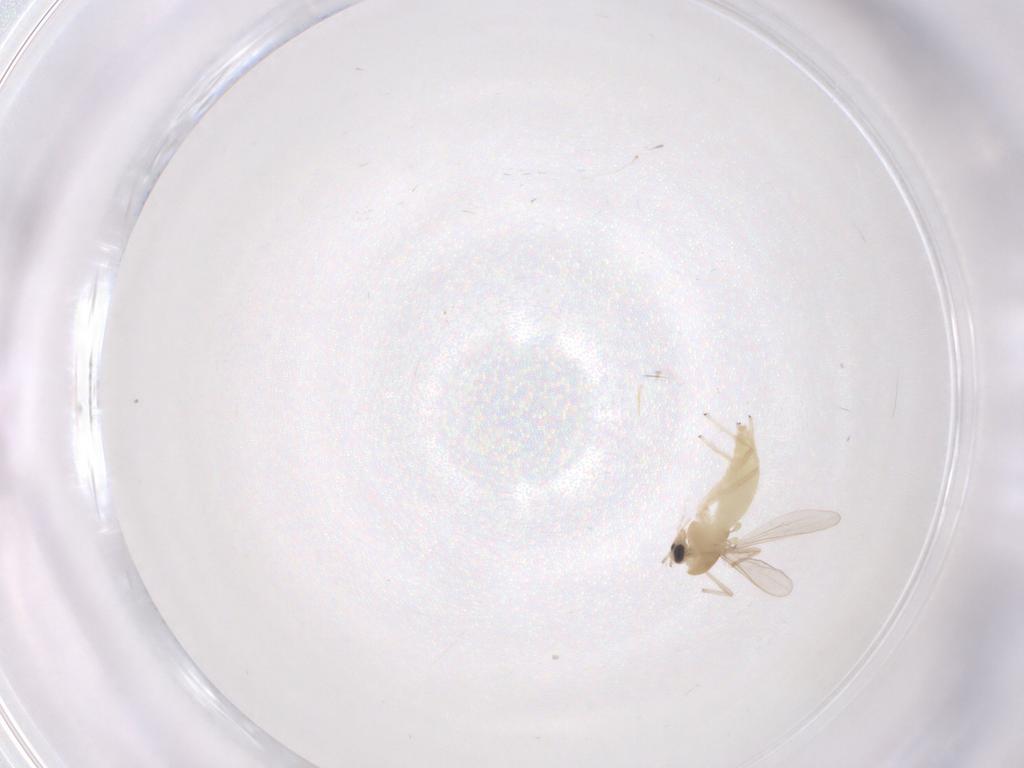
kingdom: Animalia
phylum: Arthropoda
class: Insecta
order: Diptera
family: Chironomidae
